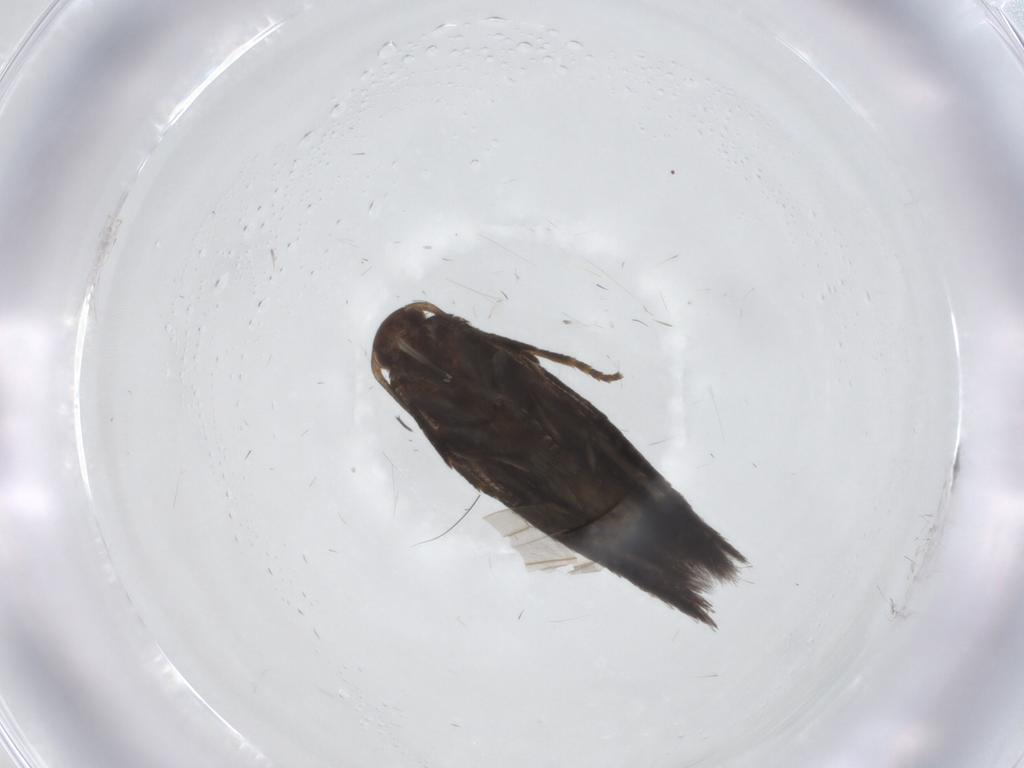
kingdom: Animalia
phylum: Arthropoda
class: Insecta
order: Lepidoptera
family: Elachistidae
